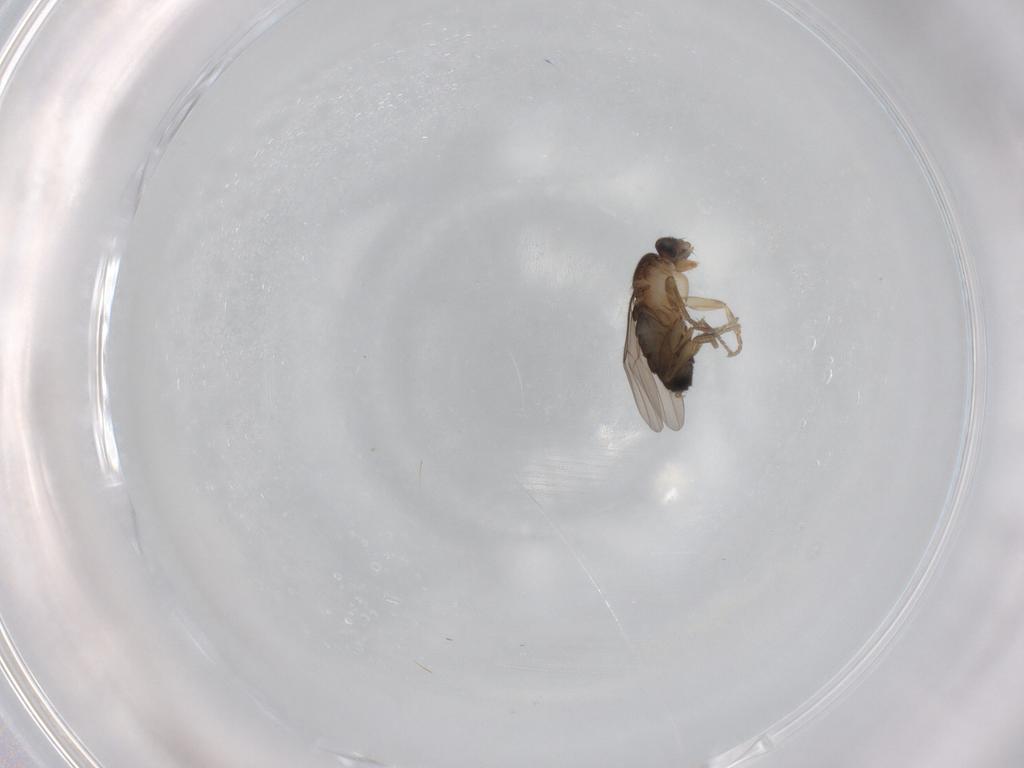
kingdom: Animalia
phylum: Arthropoda
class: Insecta
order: Diptera
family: Phoridae
